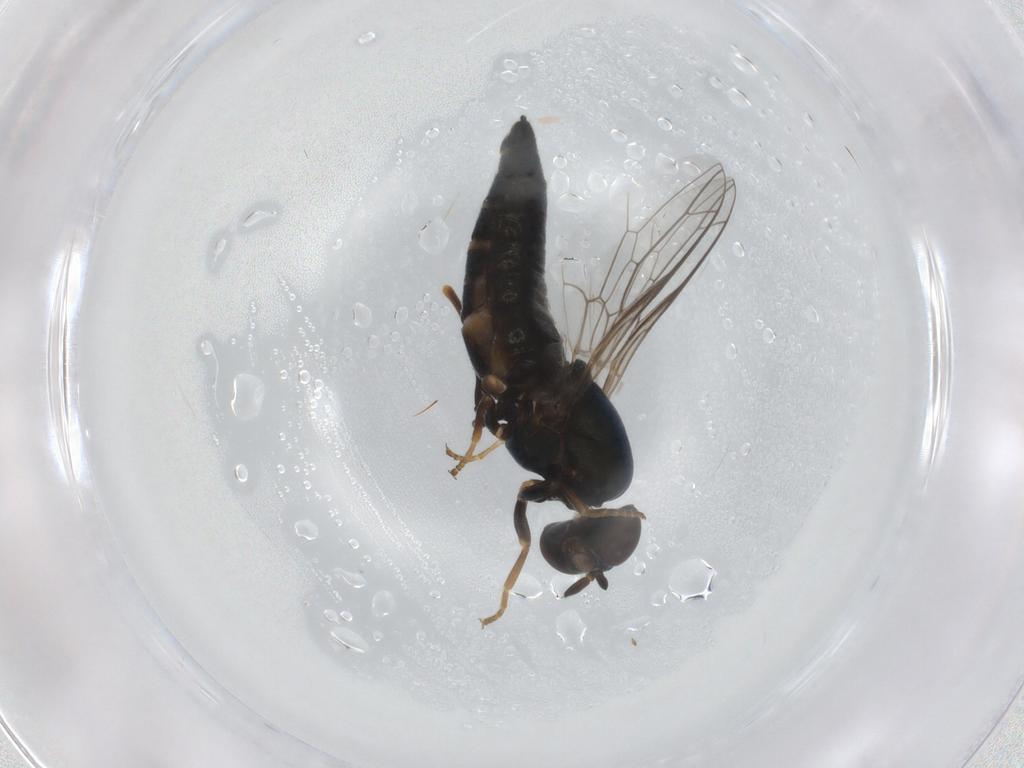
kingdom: Animalia
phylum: Arthropoda
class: Insecta
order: Diptera
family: Scenopinidae
